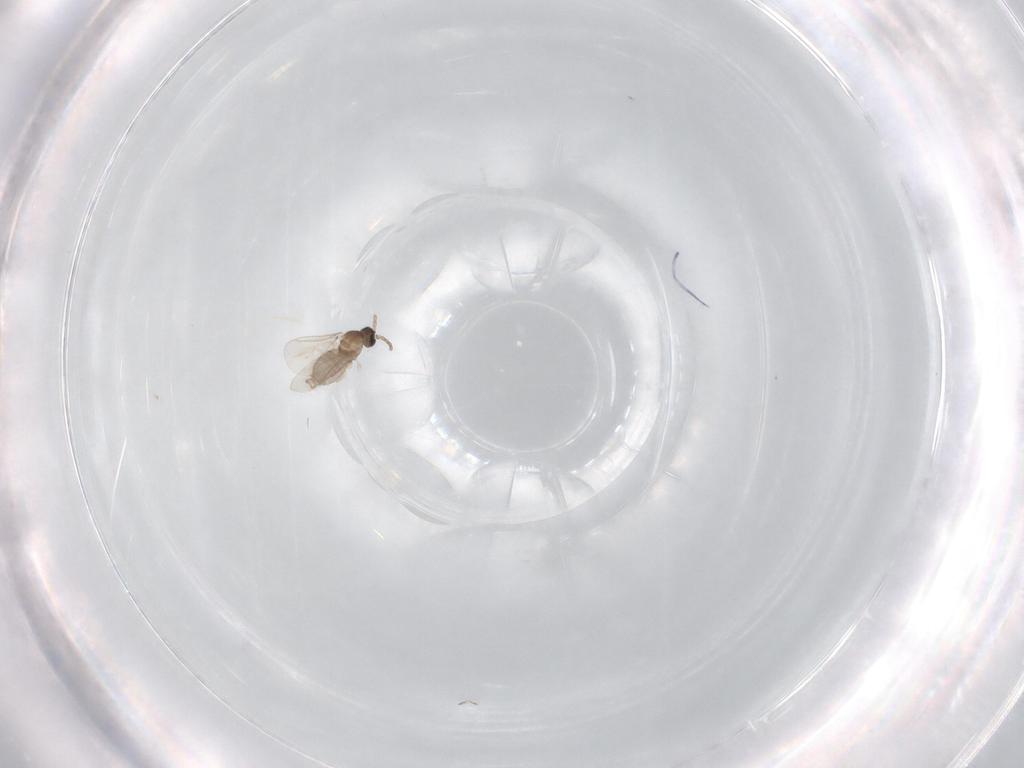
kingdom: Animalia
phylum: Arthropoda
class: Insecta
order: Diptera
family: Cecidomyiidae
